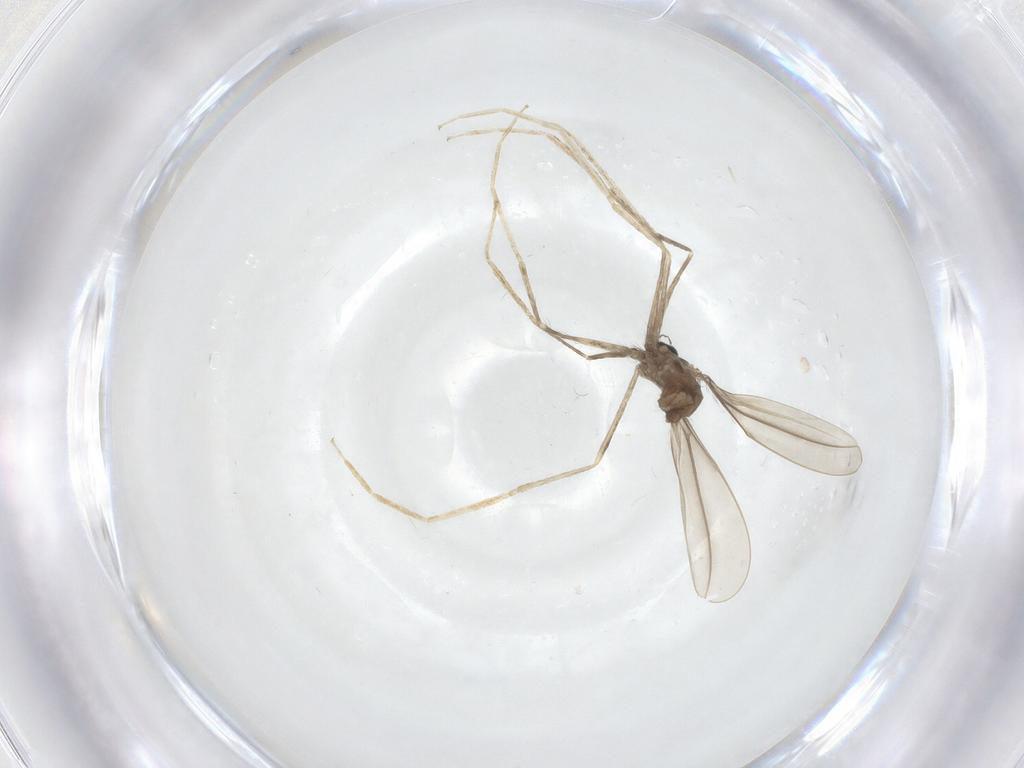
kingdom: Animalia
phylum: Arthropoda
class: Insecta
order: Diptera
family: Cecidomyiidae
